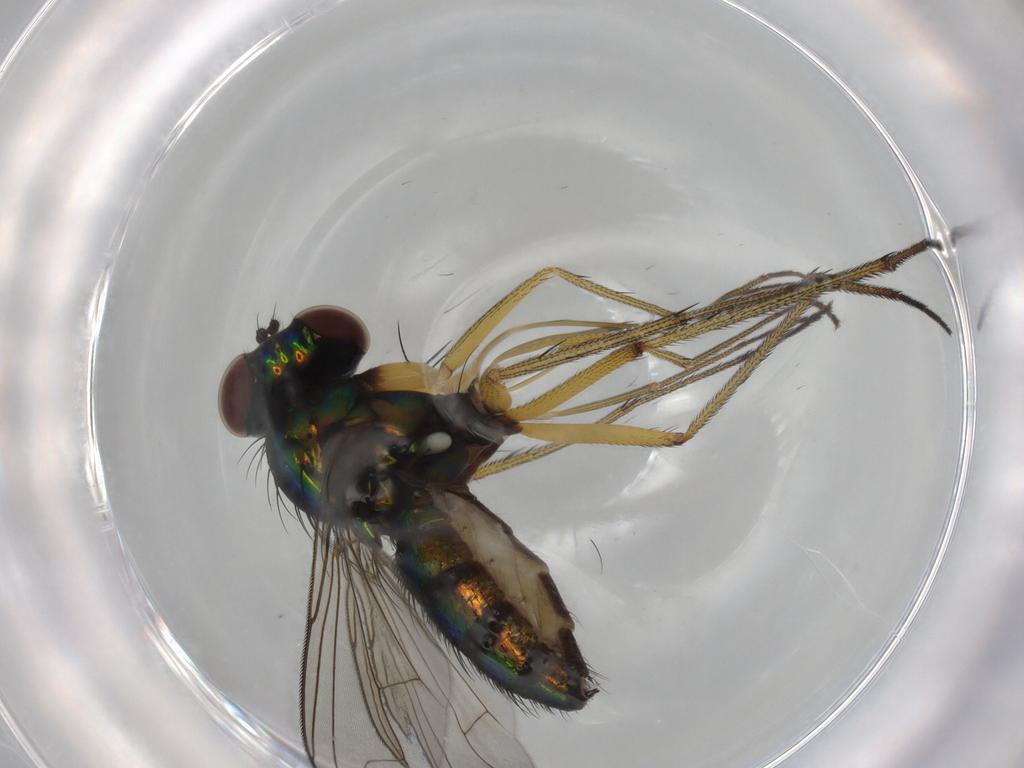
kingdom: Animalia
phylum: Arthropoda
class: Insecta
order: Diptera
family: Dolichopodidae
